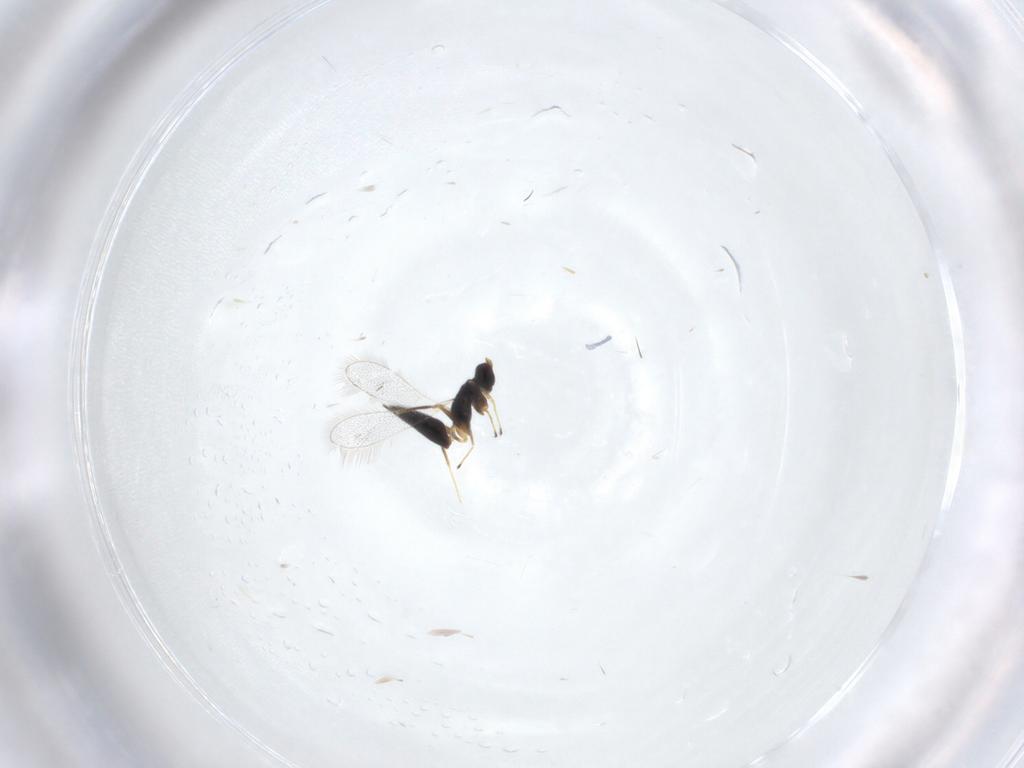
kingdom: Animalia
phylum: Arthropoda
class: Insecta
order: Hymenoptera
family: Mymaridae
